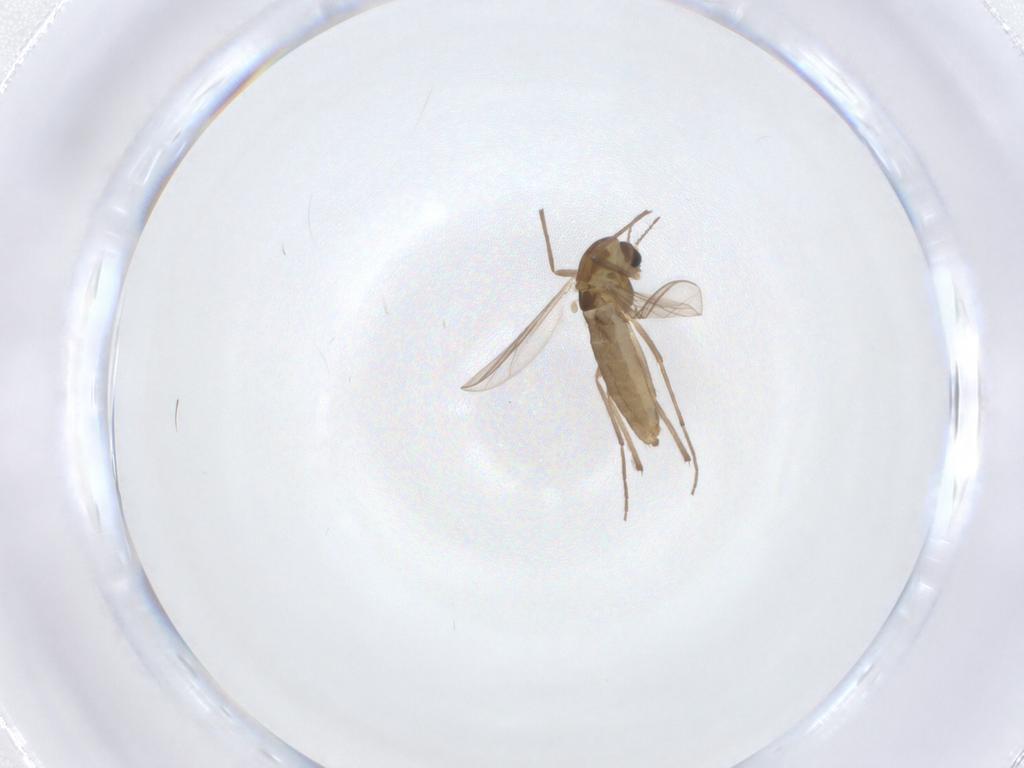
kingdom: Animalia
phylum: Arthropoda
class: Insecta
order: Diptera
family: Chironomidae
